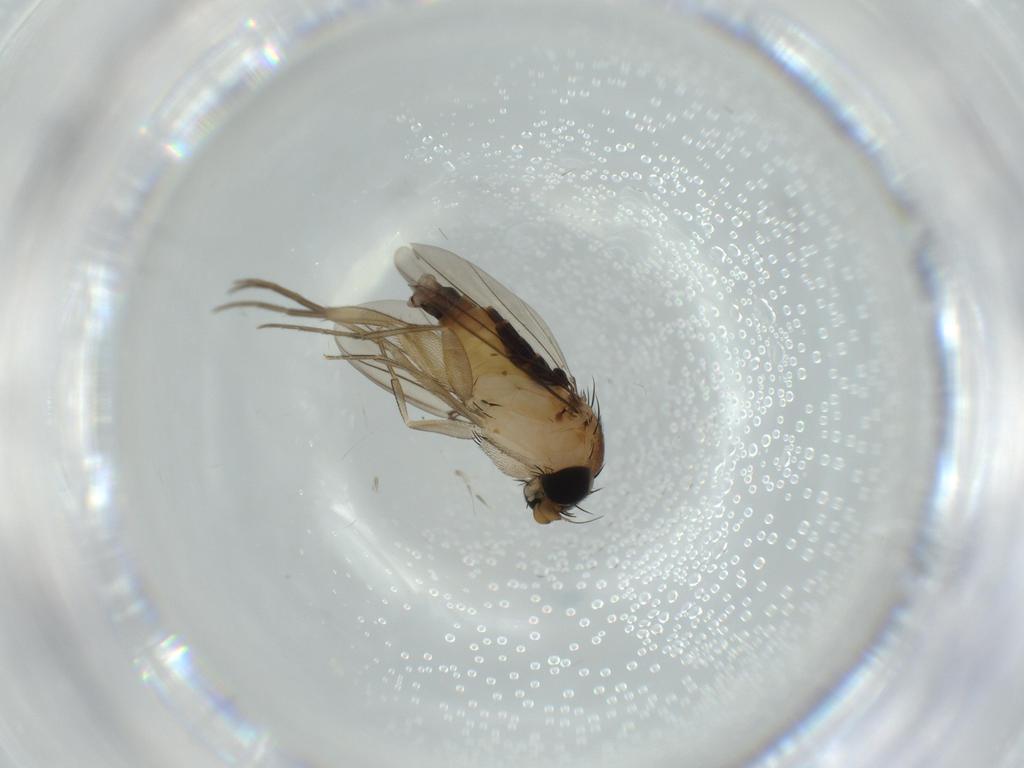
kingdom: Animalia
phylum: Arthropoda
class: Insecta
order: Diptera
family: Phoridae
